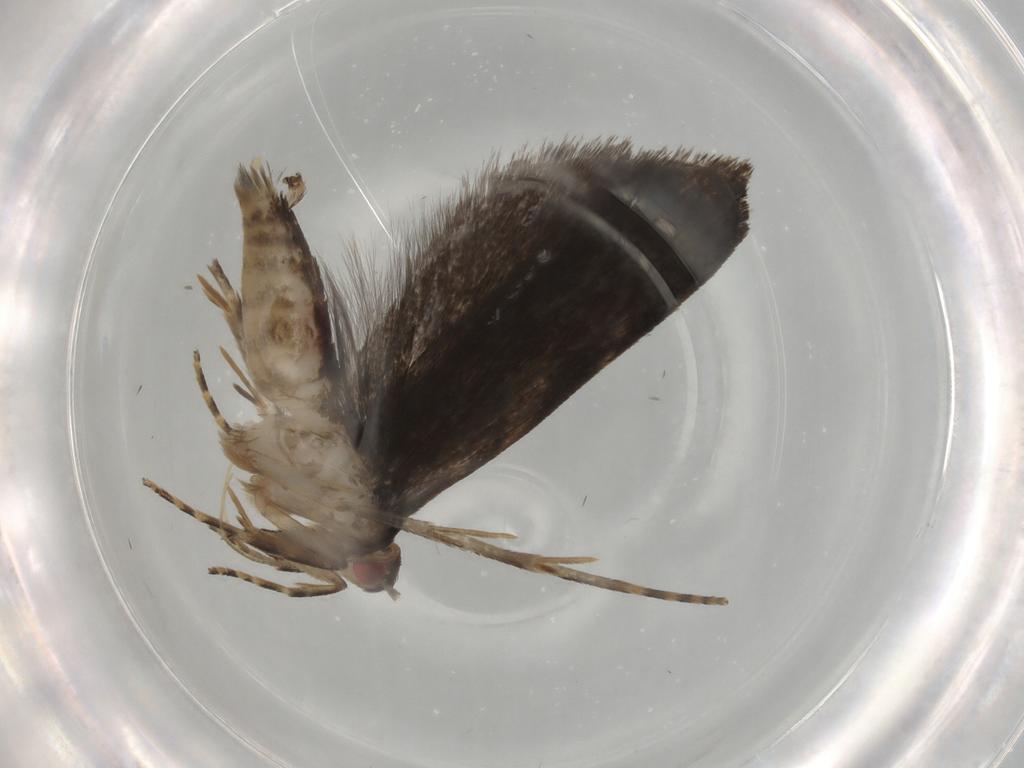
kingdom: Animalia
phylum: Arthropoda
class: Insecta
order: Lepidoptera
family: Gelechiidae
